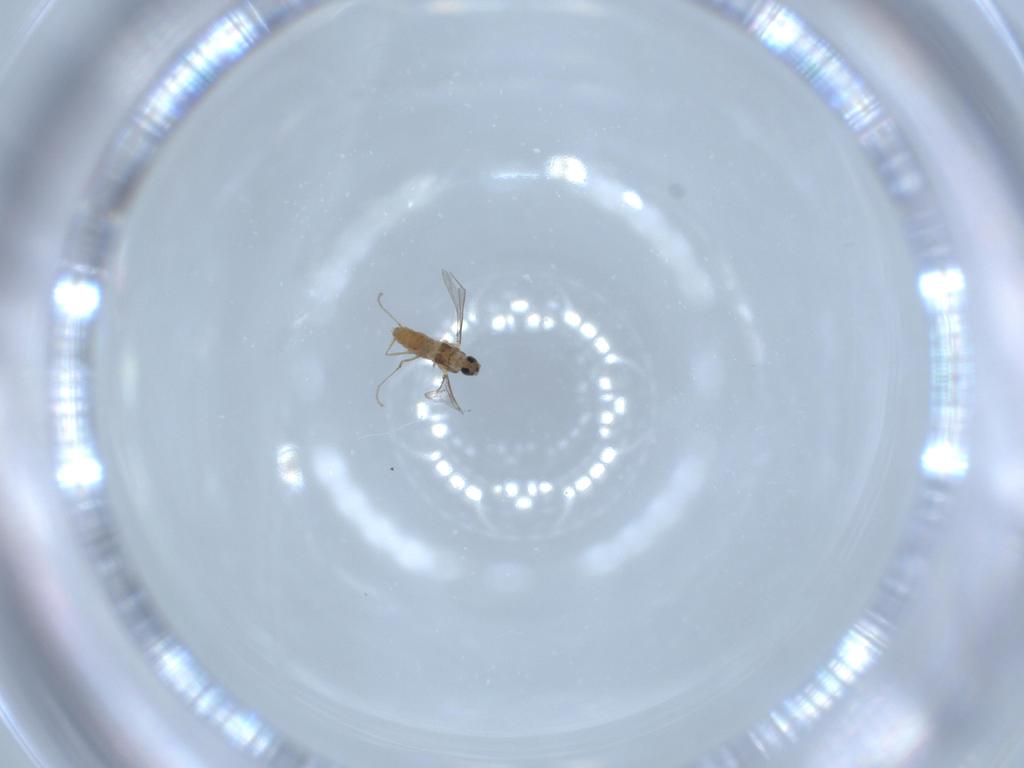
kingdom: Animalia
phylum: Arthropoda
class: Insecta
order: Diptera
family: Cecidomyiidae
